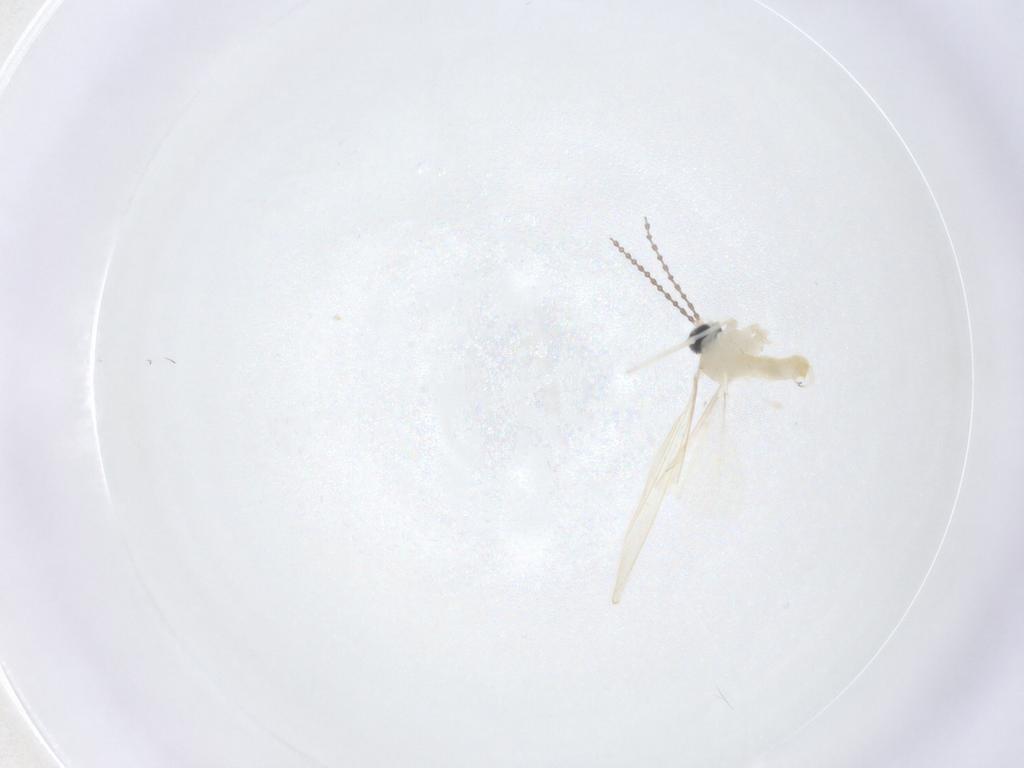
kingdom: Animalia
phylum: Arthropoda
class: Insecta
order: Diptera
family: Cecidomyiidae
